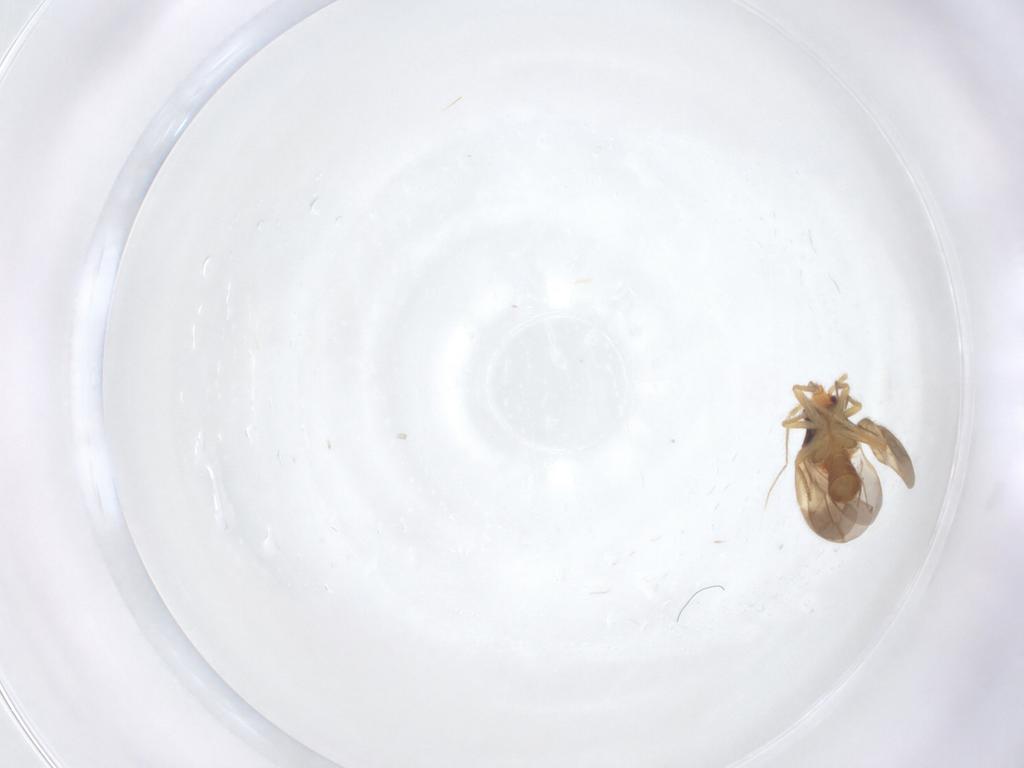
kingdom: Animalia
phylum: Arthropoda
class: Insecta
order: Hemiptera
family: Ceratocombidae
